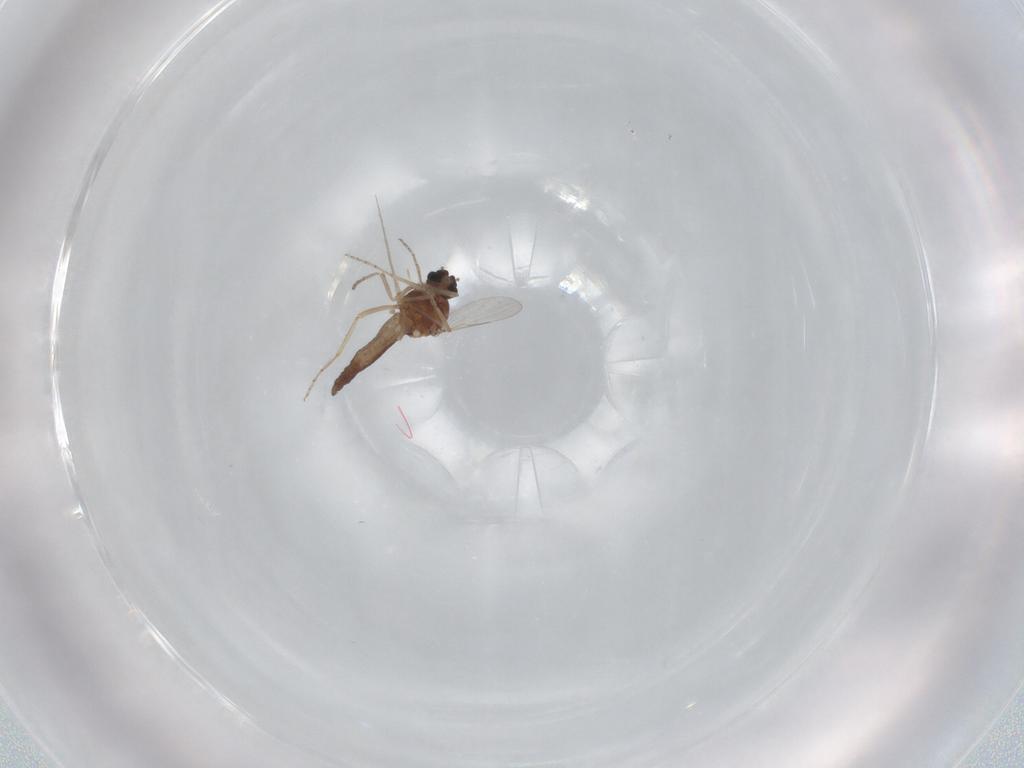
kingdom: Animalia
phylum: Arthropoda
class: Insecta
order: Diptera
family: Ceratopogonidae
